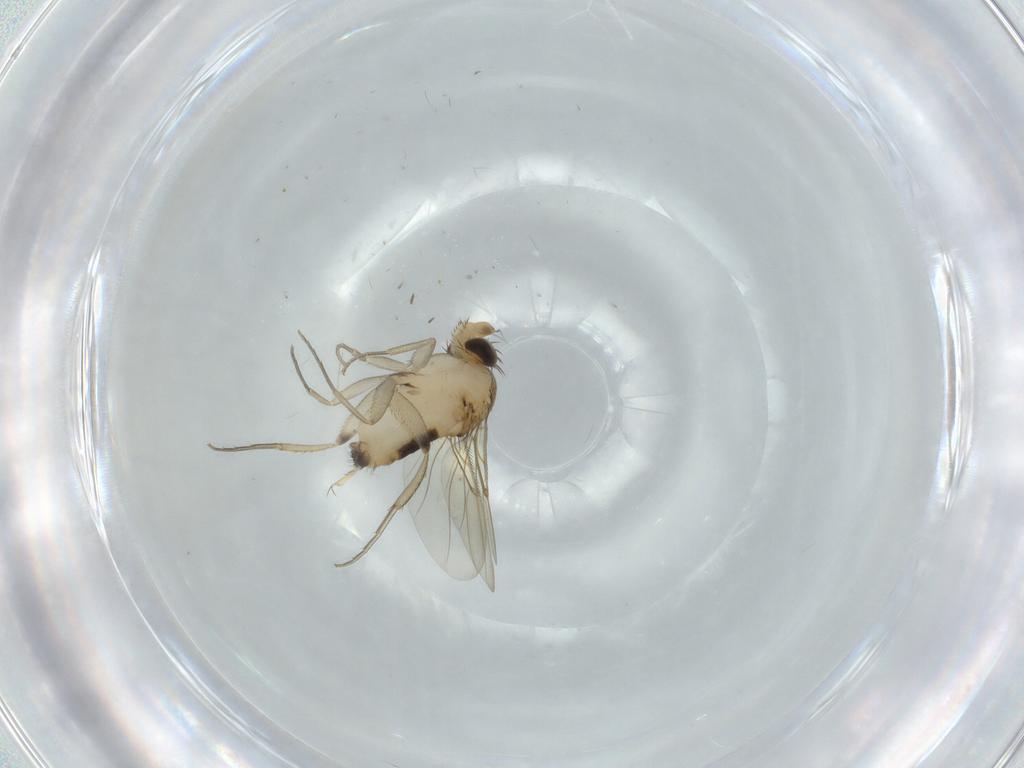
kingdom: Animalia
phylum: Arthropoda
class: Insecta
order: Diptera
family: Phoridae
